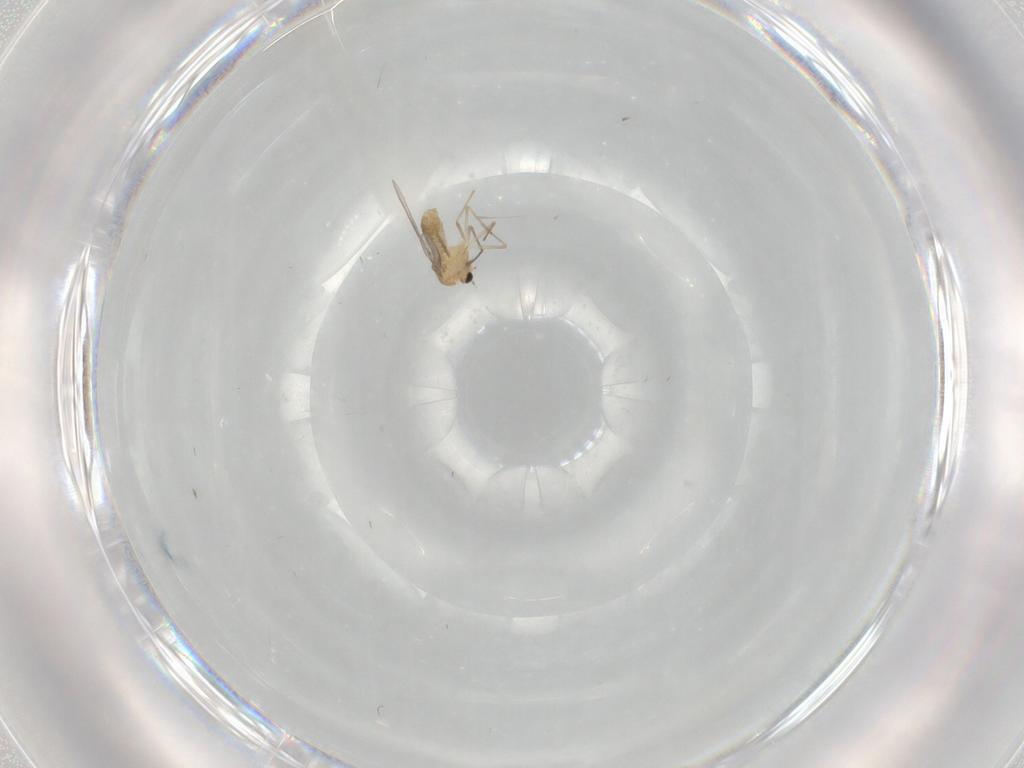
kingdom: Animalia
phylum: Arthropoda
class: Insecta
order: Diptera
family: Chironomidae
